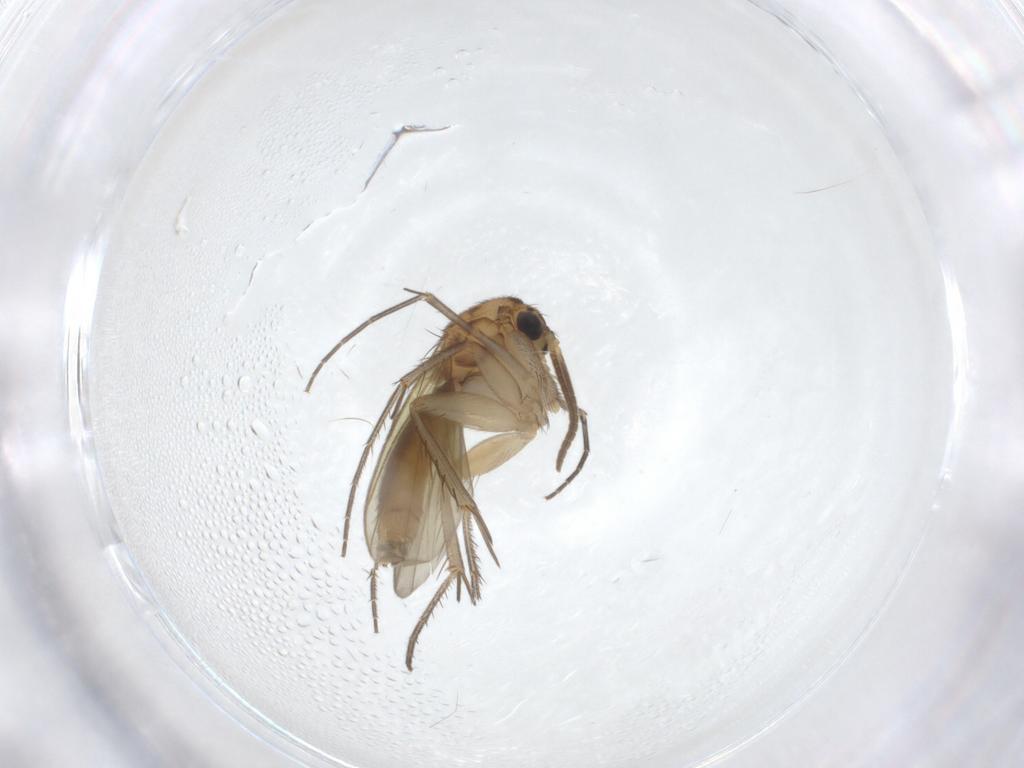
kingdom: Animalia
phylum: Arthropoda
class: Insecta
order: Diptera
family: Mycetophilidae
